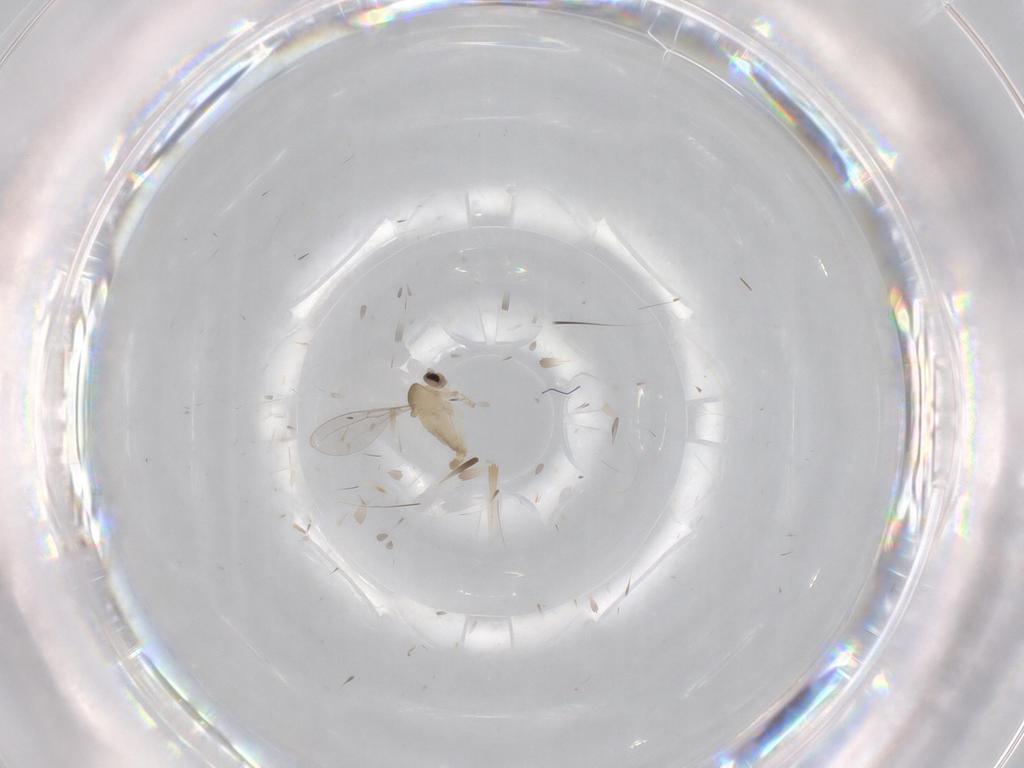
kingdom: Animalia
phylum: Arthropoda
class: Insecta
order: Diptera
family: Cecidomyiidae
